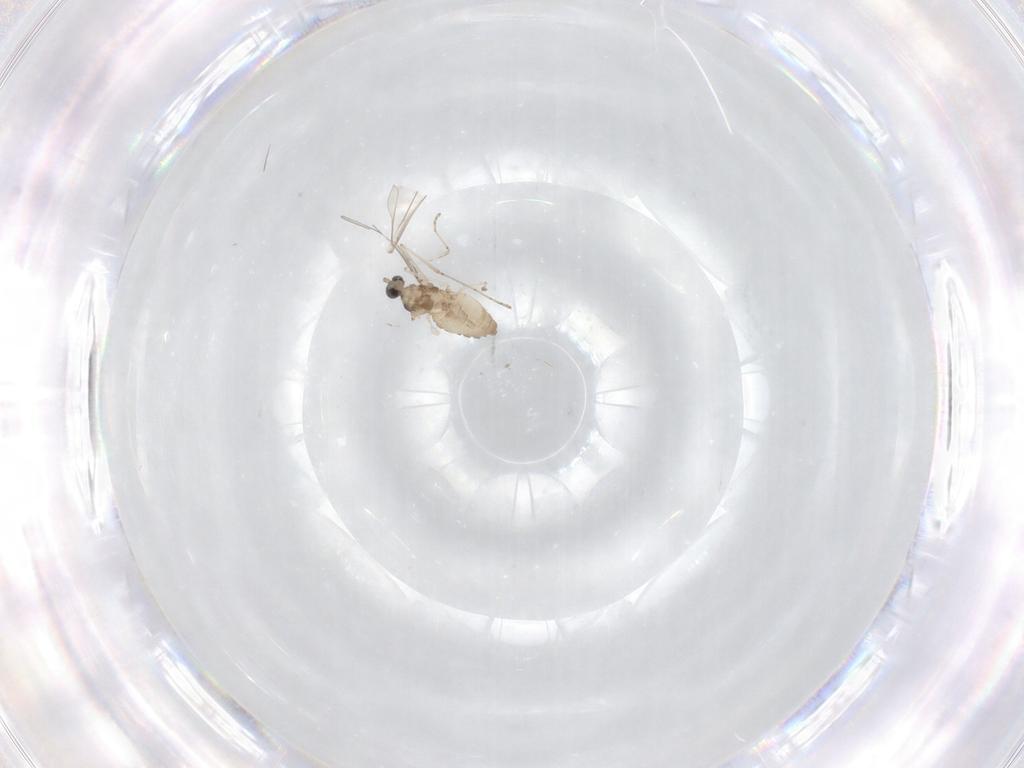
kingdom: Animalia
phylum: Arthropoda
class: Insecta
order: Diptera
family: Cecidomyiidae
